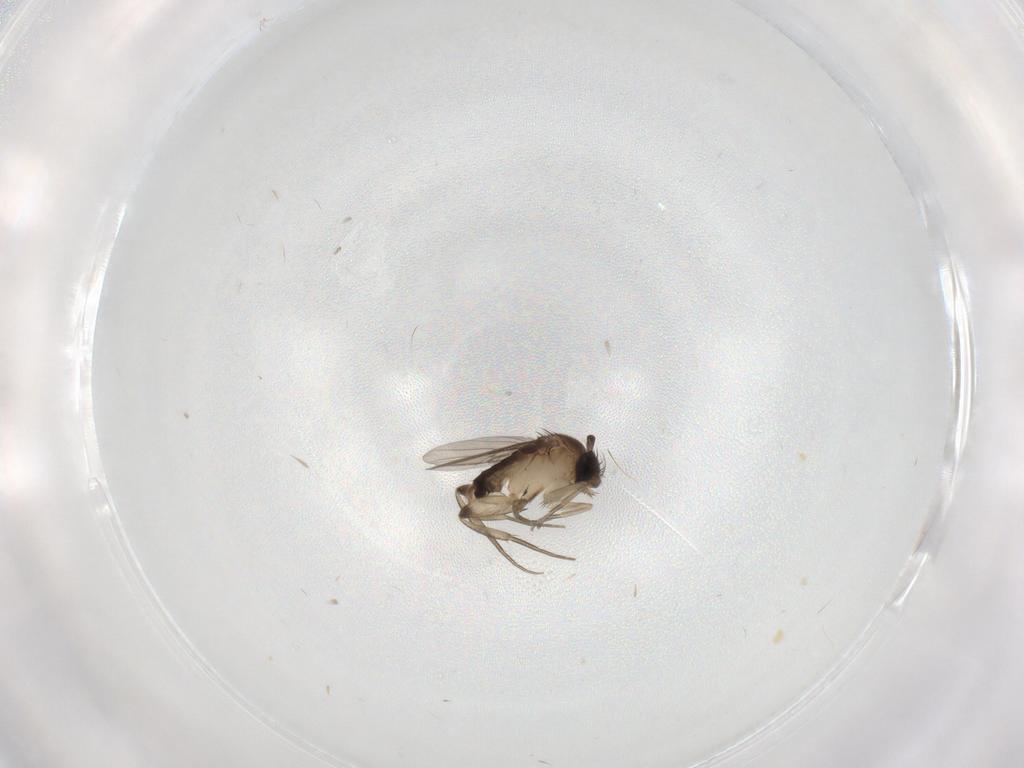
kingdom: Animalia
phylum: Arthropoda
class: Insecta
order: Diptera
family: Phoridae
